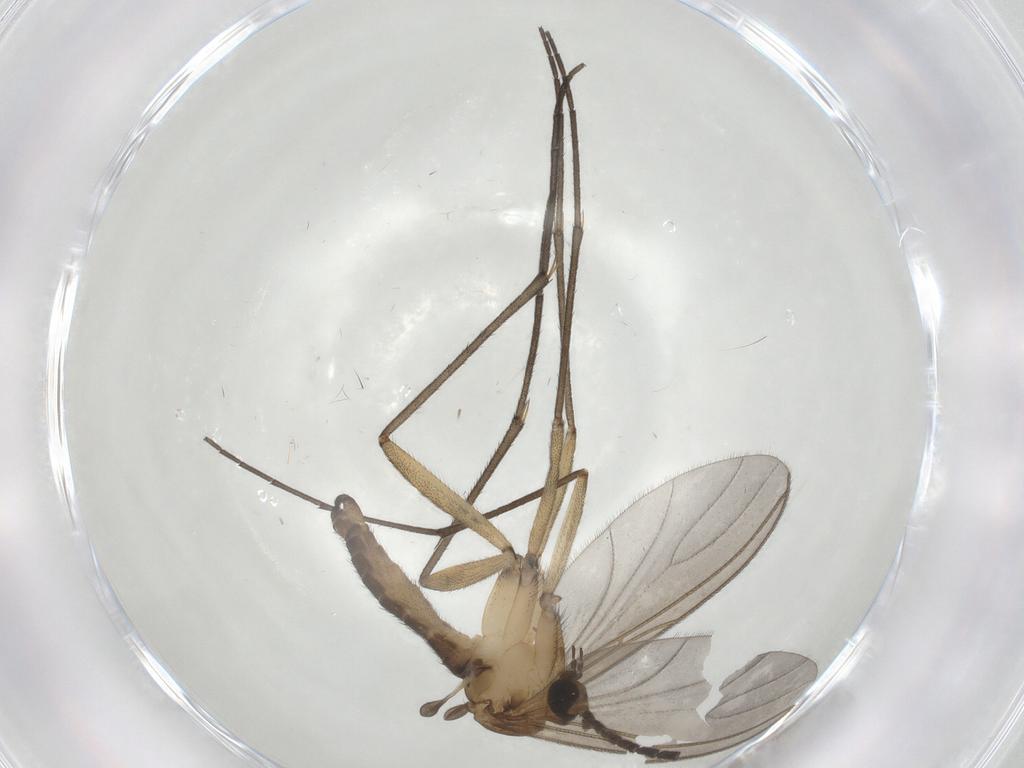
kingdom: Animalia
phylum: Arthropoda
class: Insecta
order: Diptera
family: Sciaridae
